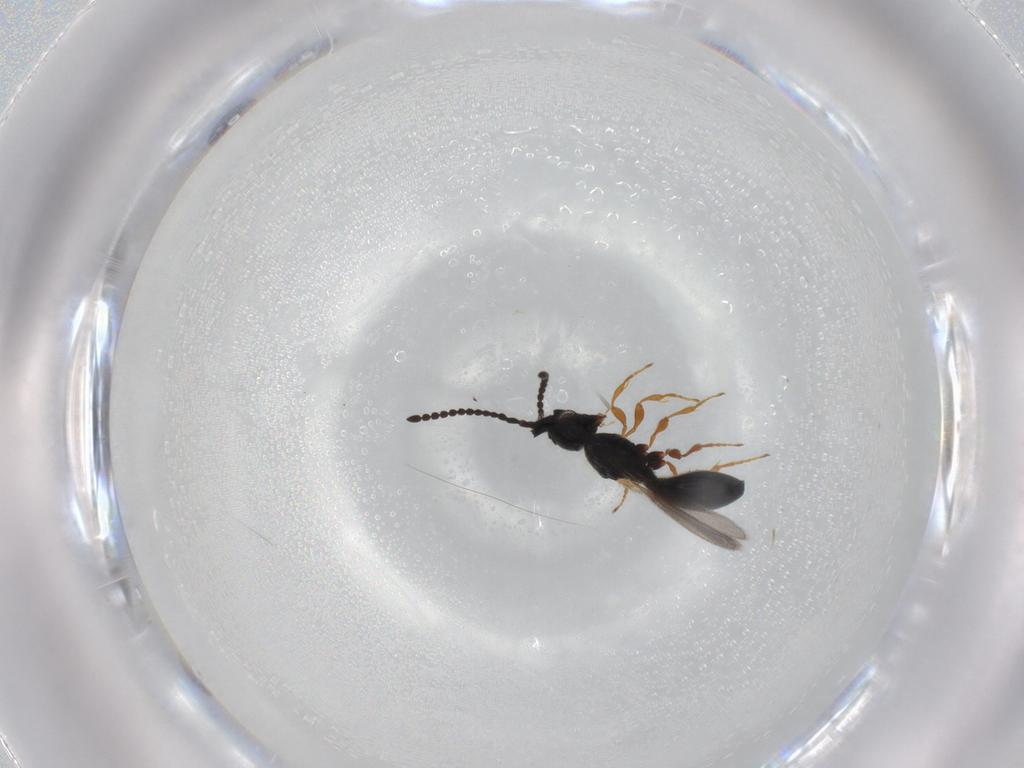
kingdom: Animalia
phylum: Arthropoda
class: Insecta
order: Hymenoptera
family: Diapriidae
